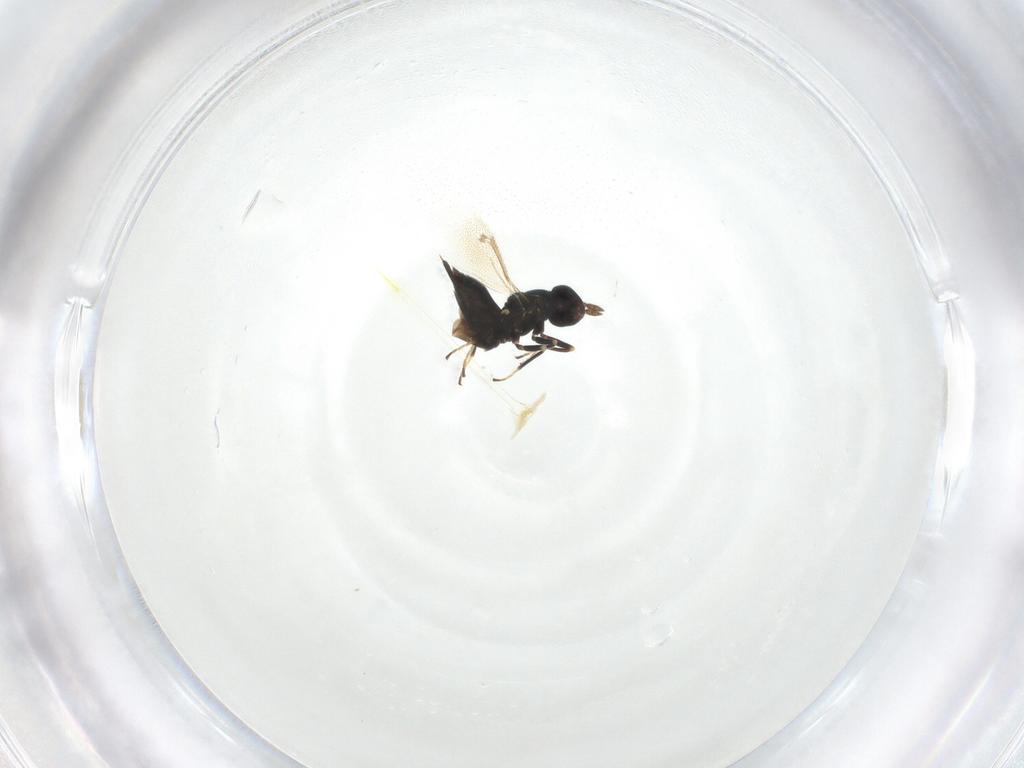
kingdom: Animalia
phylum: Arthropoda
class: Insecta
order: Hymenoptera
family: Eulophidae
